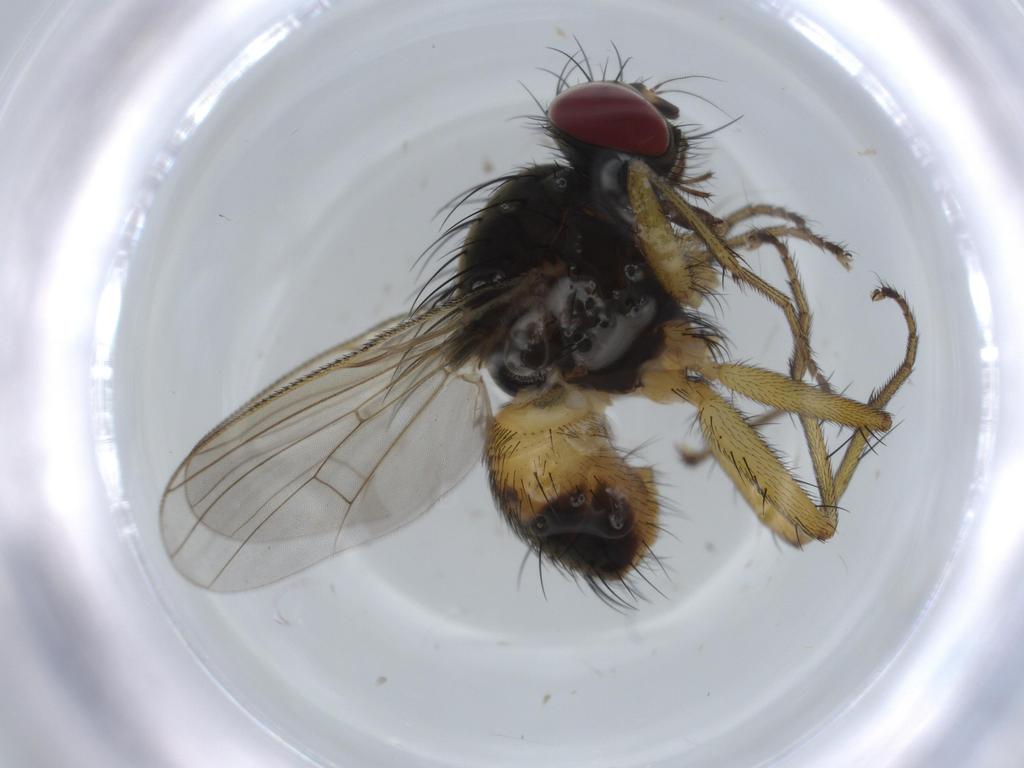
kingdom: Animalia
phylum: Arthropoda
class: Insecta
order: Diptera
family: Muscidae
